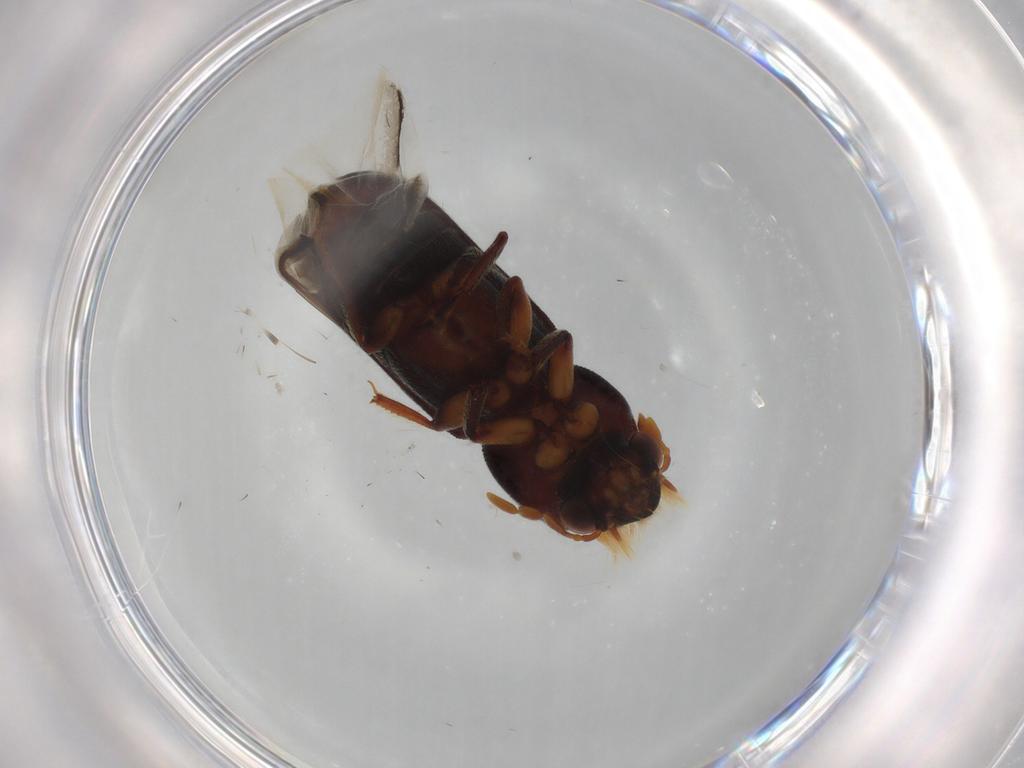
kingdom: Animalia
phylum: Arthropoda
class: Insecta
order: Coleoptera
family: Bostrichidae
